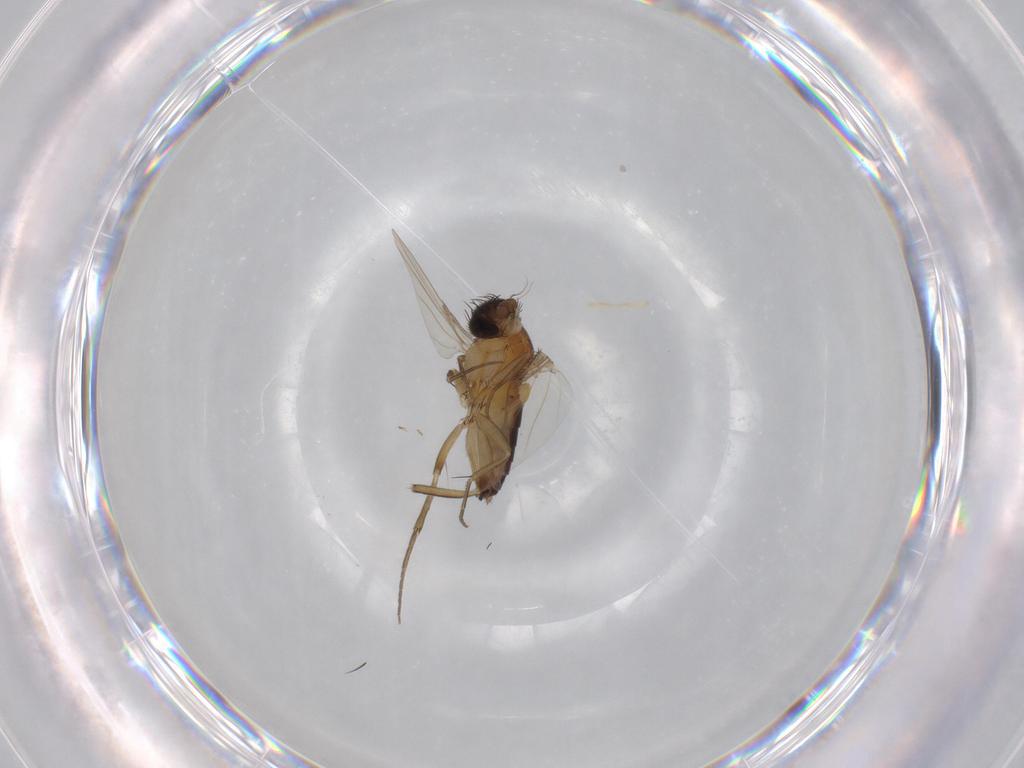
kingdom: Animalia
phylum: Arthropoda
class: Insecta
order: Diptera
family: Phoridae
